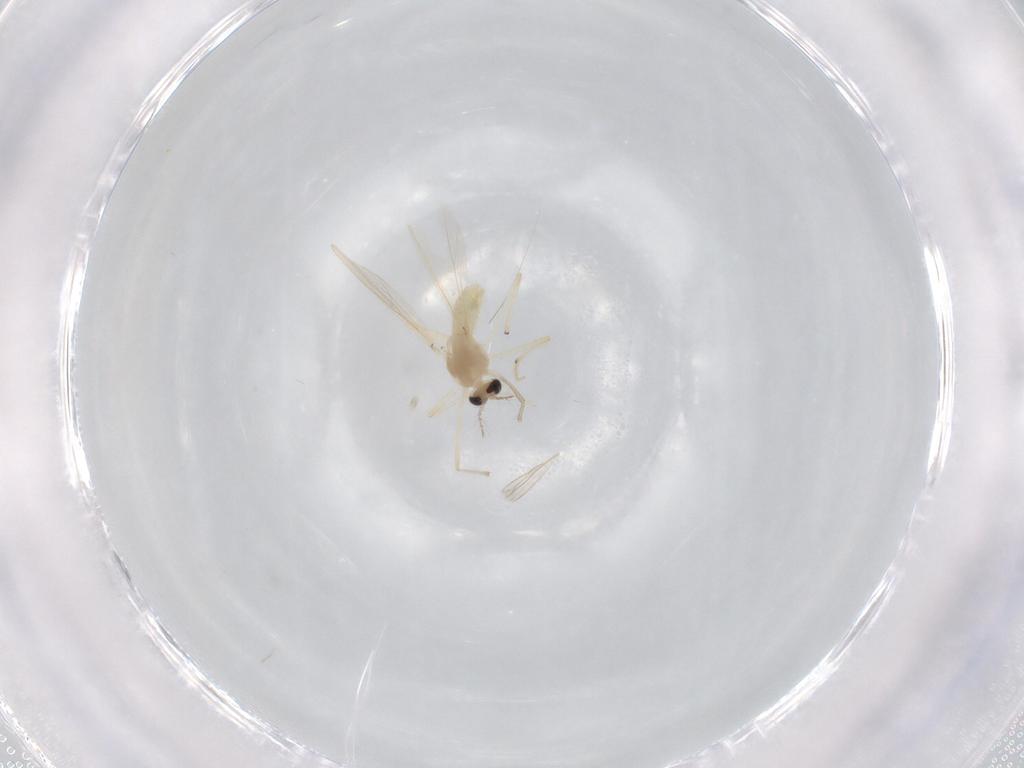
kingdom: Animalia
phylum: Arthropoda
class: Insecta
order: Diptera
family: Chironomidae
